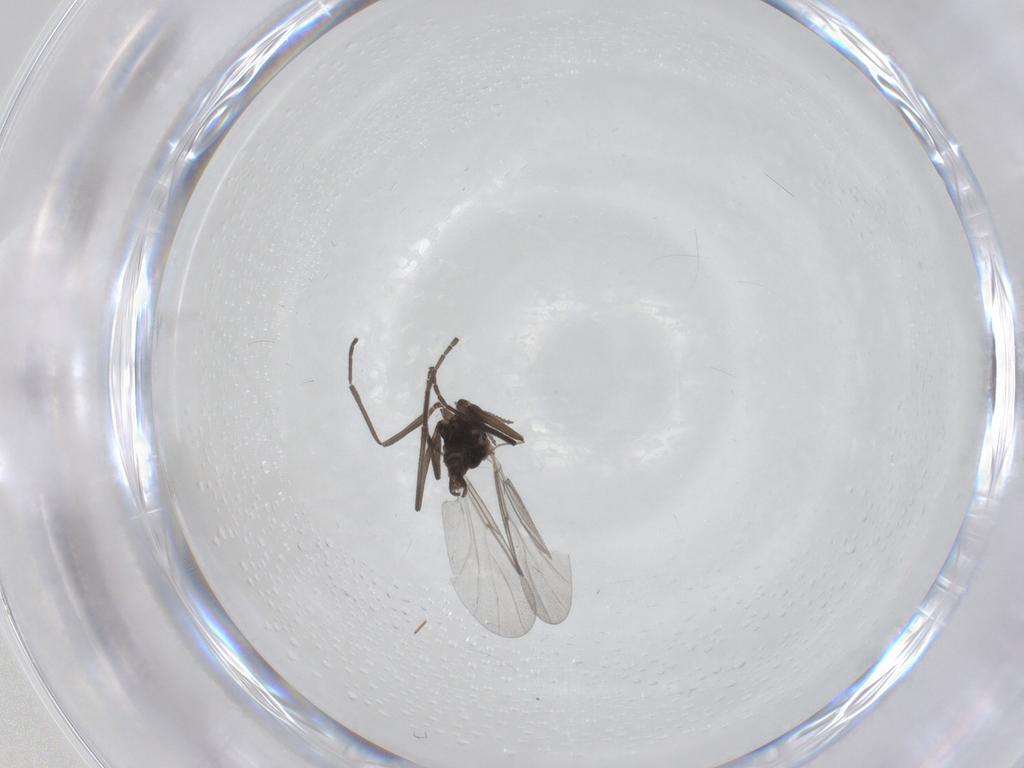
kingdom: Animalia
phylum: Arthropoda
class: Insecta
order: Diptera
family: Phoridae
